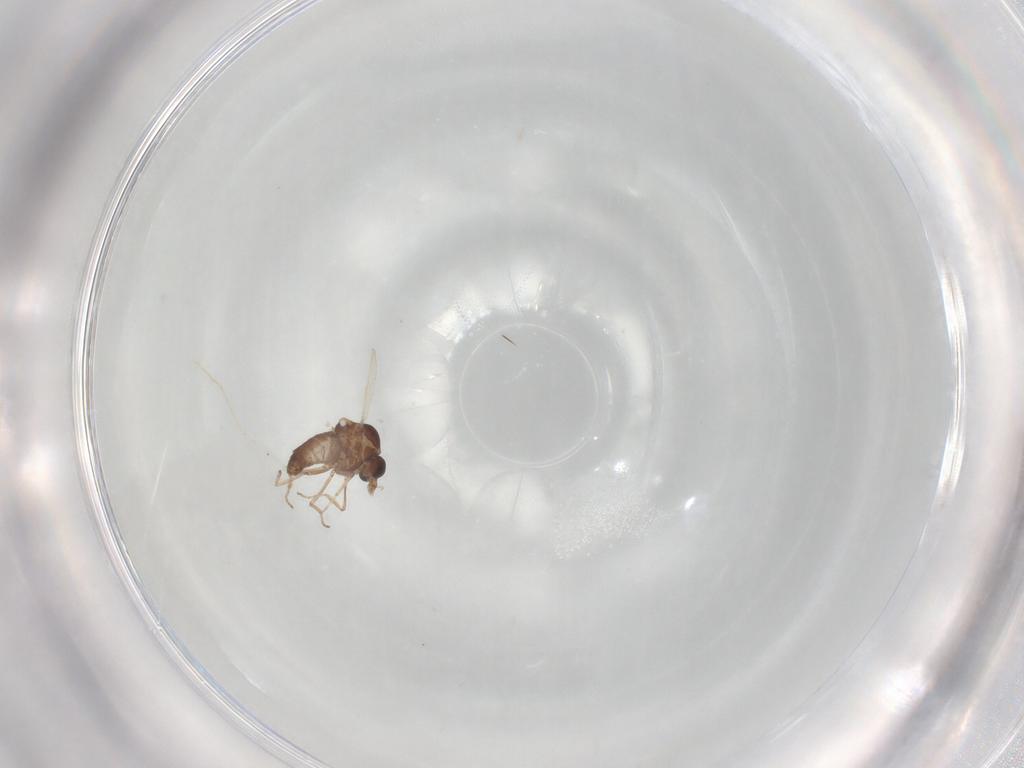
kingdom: Animalia
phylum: Arthropoda
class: Insecta
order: Diptera
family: Ceratopogonidae
